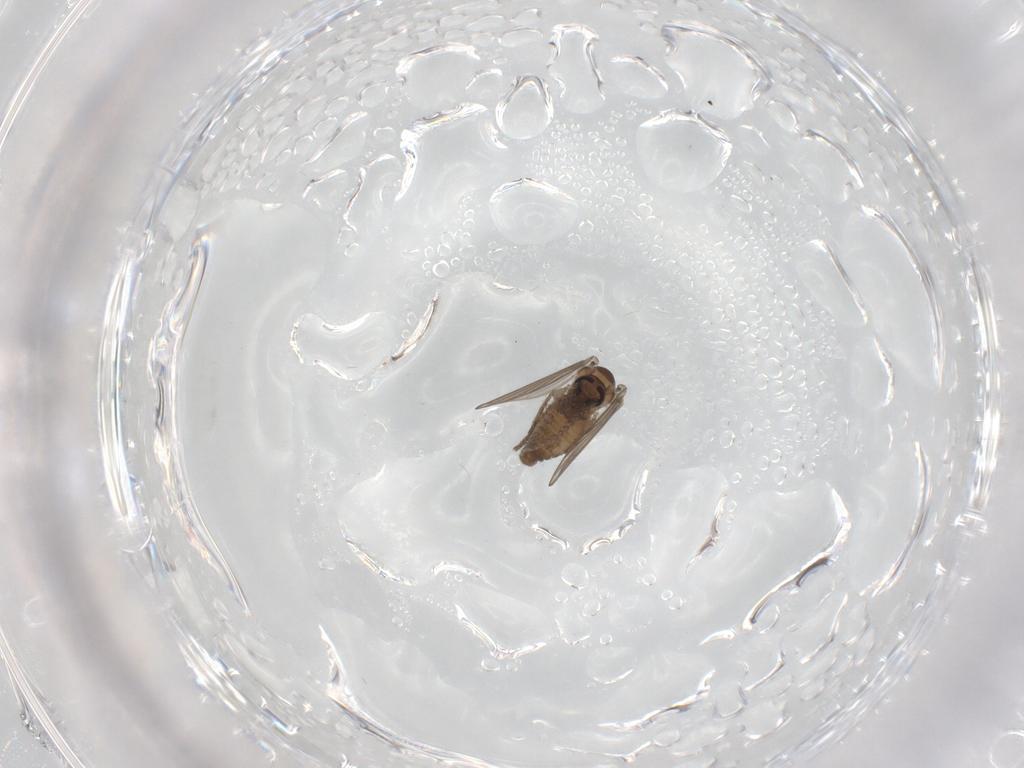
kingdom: Animalia
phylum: Arthropoda
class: Insecta
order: Diptera
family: Psychodidae
